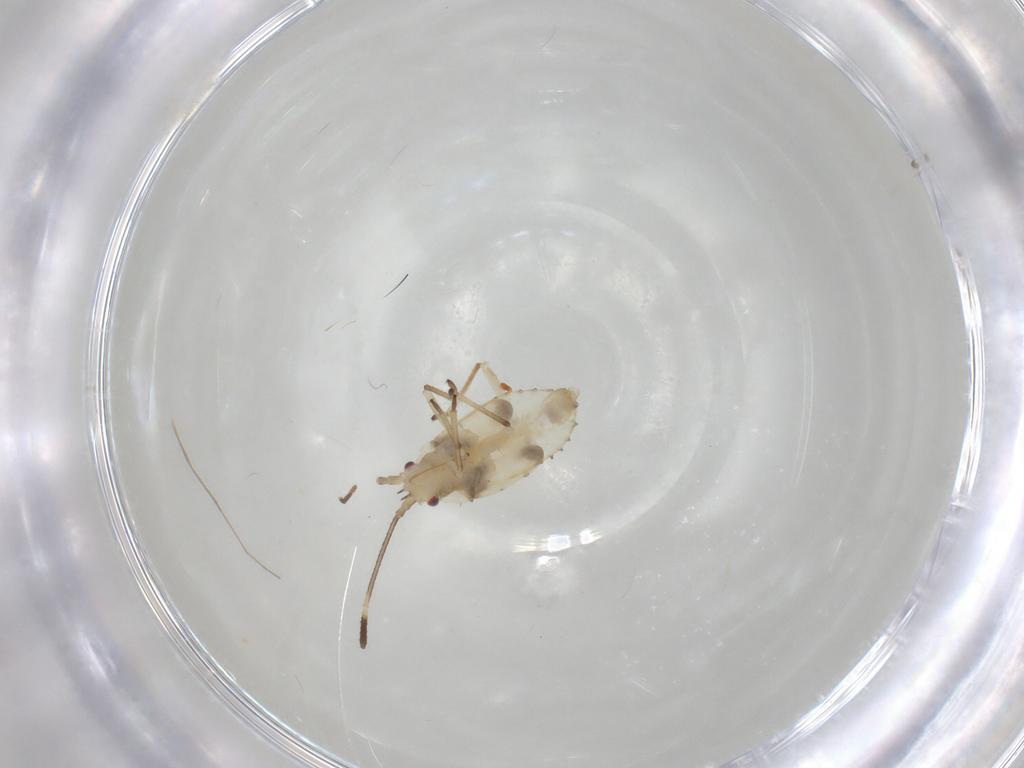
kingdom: Animalia
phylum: Arthropoda
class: Insecta
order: Hemiptera
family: Tingidae
